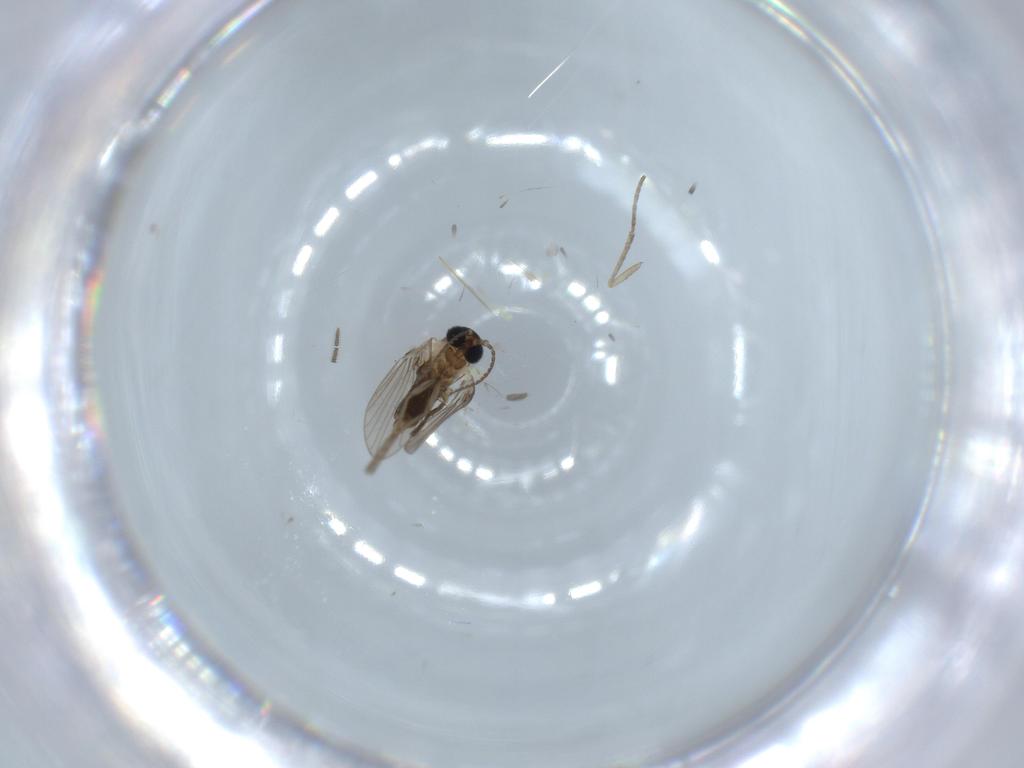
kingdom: Animalia
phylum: Arthropoda
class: Insecta
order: Diptera
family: Psychodidae
